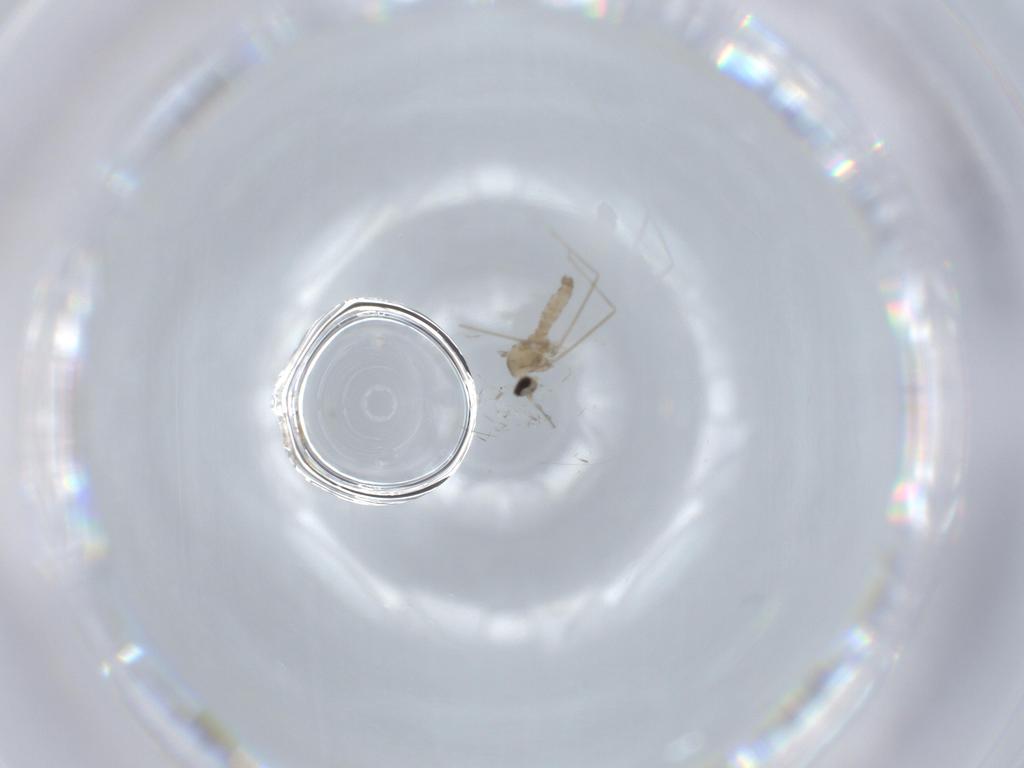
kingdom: Animalia
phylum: Arthropoda
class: Insecta
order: Diptera
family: Cecidomyiidae
